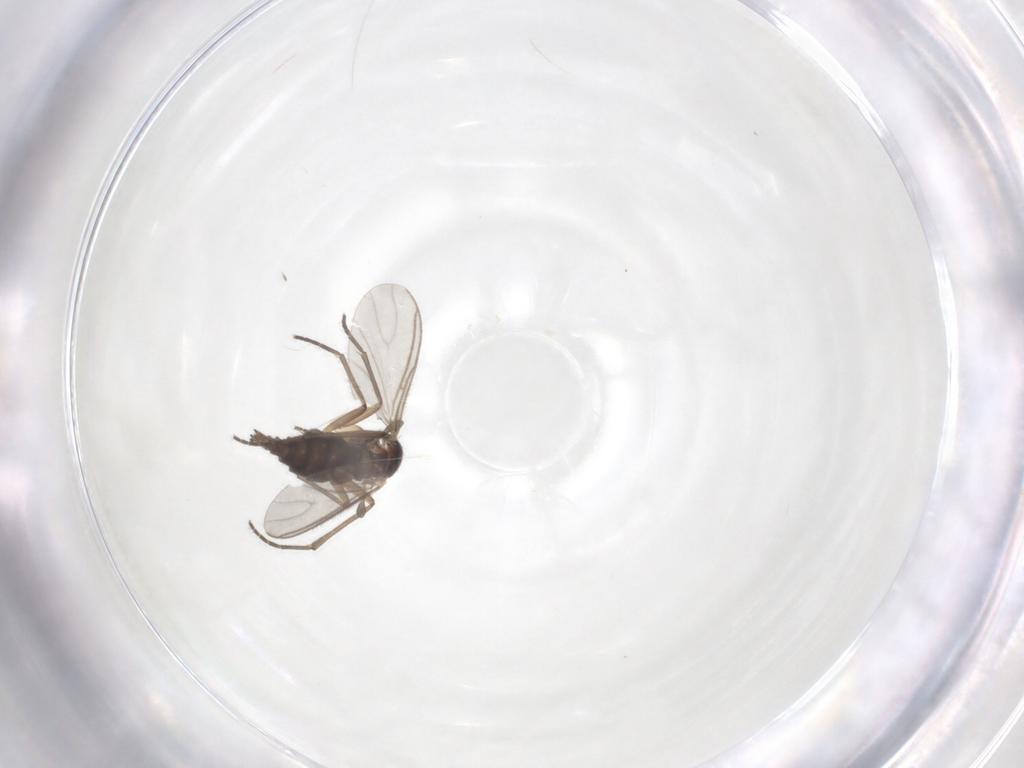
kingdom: Animalia
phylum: Arthropoda
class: Insecta
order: Diptera
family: Sciaridae
